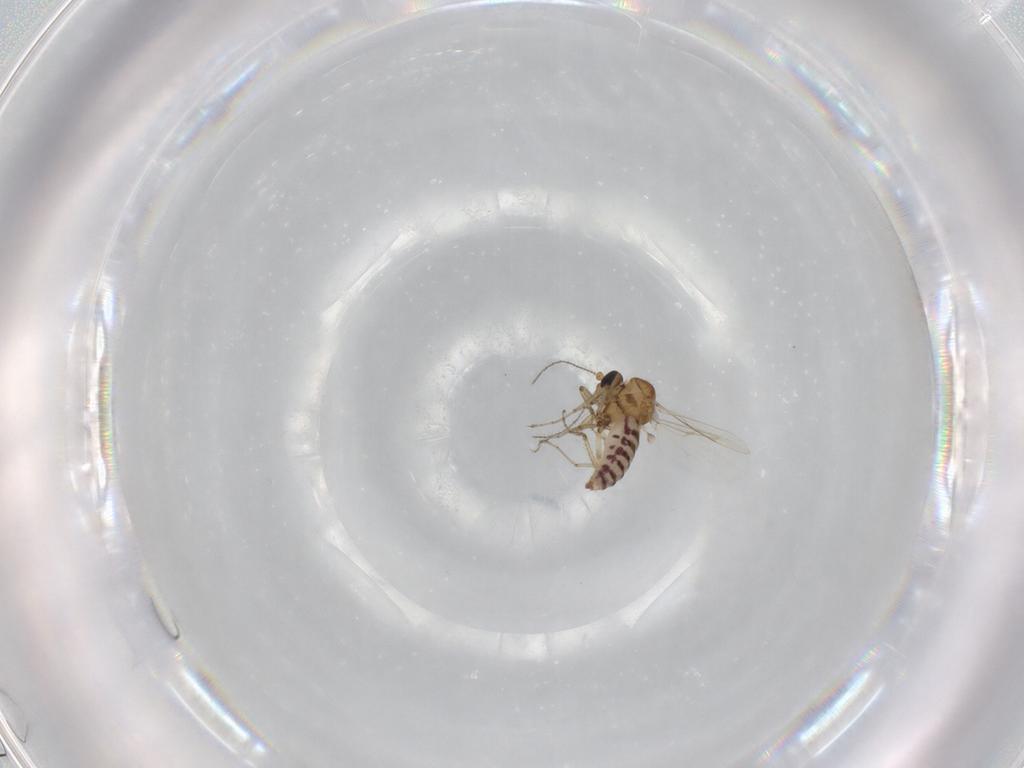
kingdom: Animalia
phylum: Arthropoda
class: Insecta
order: Diptera
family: Ceratopogonidae
